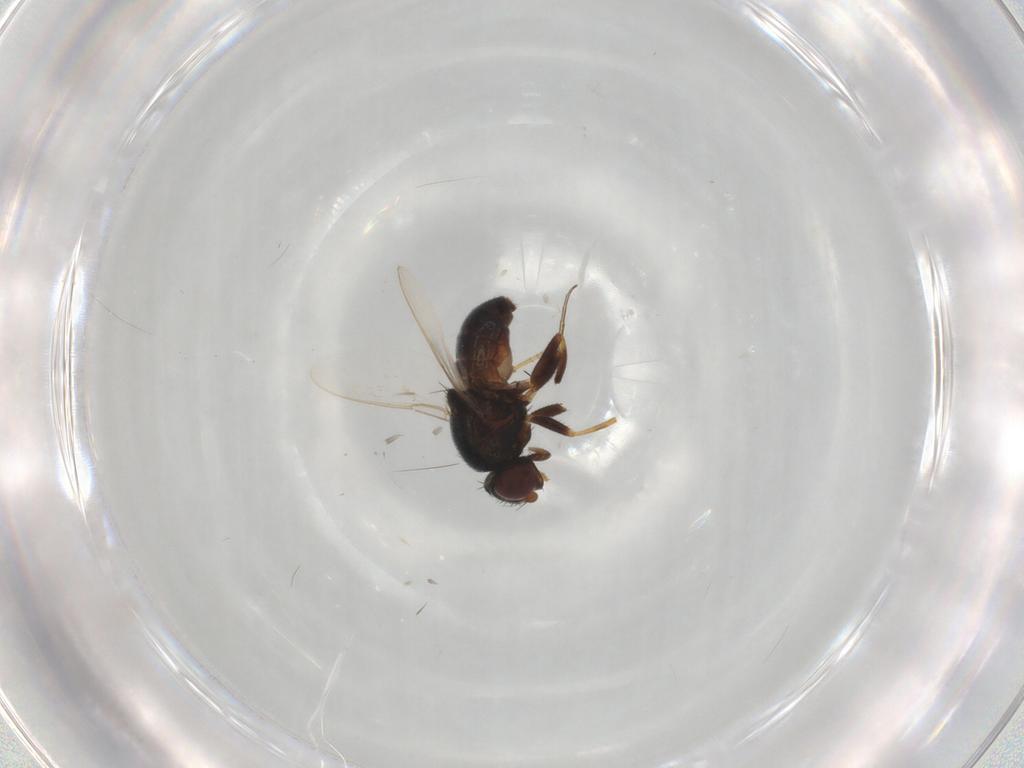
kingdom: Animalia
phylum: Arthropoda
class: Insecta
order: Diptera
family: Chloropidae
